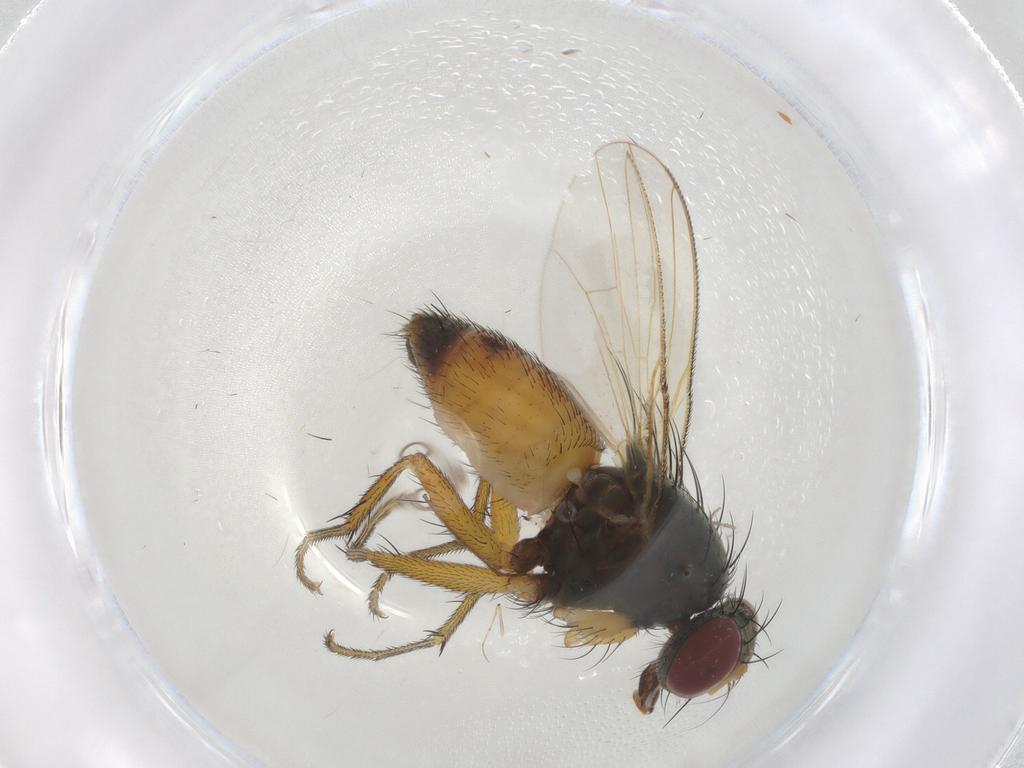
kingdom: Animalia
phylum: Arthropoda
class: Insecta
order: Diptera
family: Muscidae
